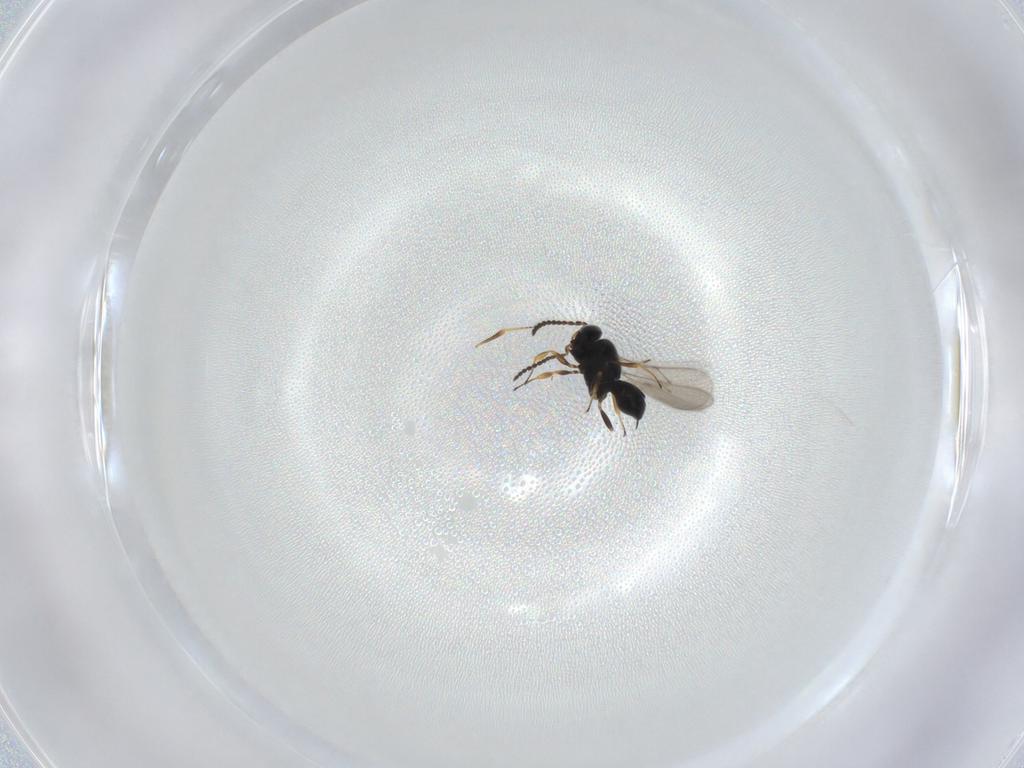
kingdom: Animalia
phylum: Arthropoda
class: Insecta
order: Hymenoptera
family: Scelionidae
